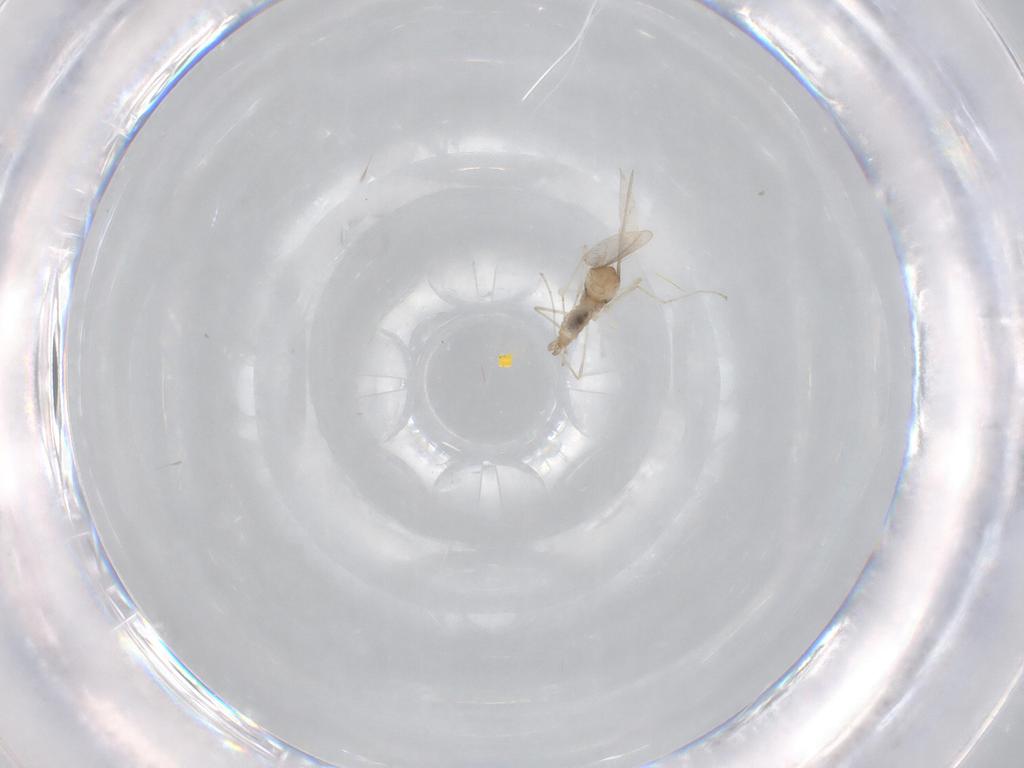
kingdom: Animalia
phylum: Arthropoda
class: Insecta
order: Diptera
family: Cecidomyiidae
